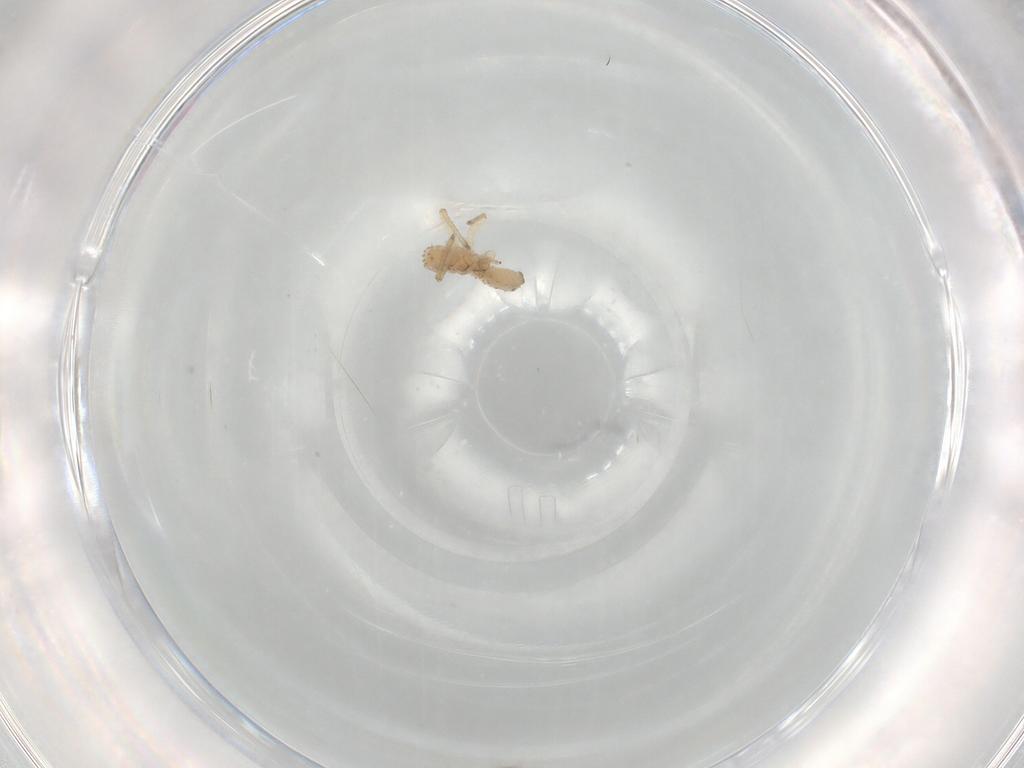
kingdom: Animalia
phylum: Arthropoda
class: Insecta
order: Hemiptera
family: Aphididae
